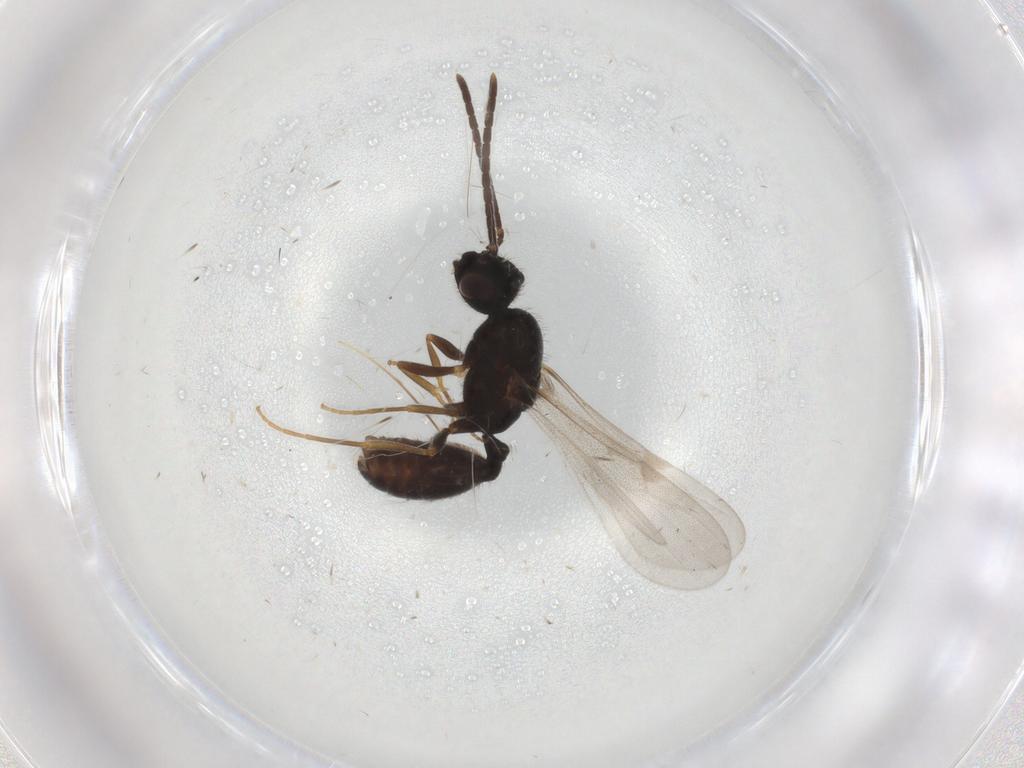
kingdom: Animalia
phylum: Arthropoda
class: Insecta
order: Hymenoptera
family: Formicidae
